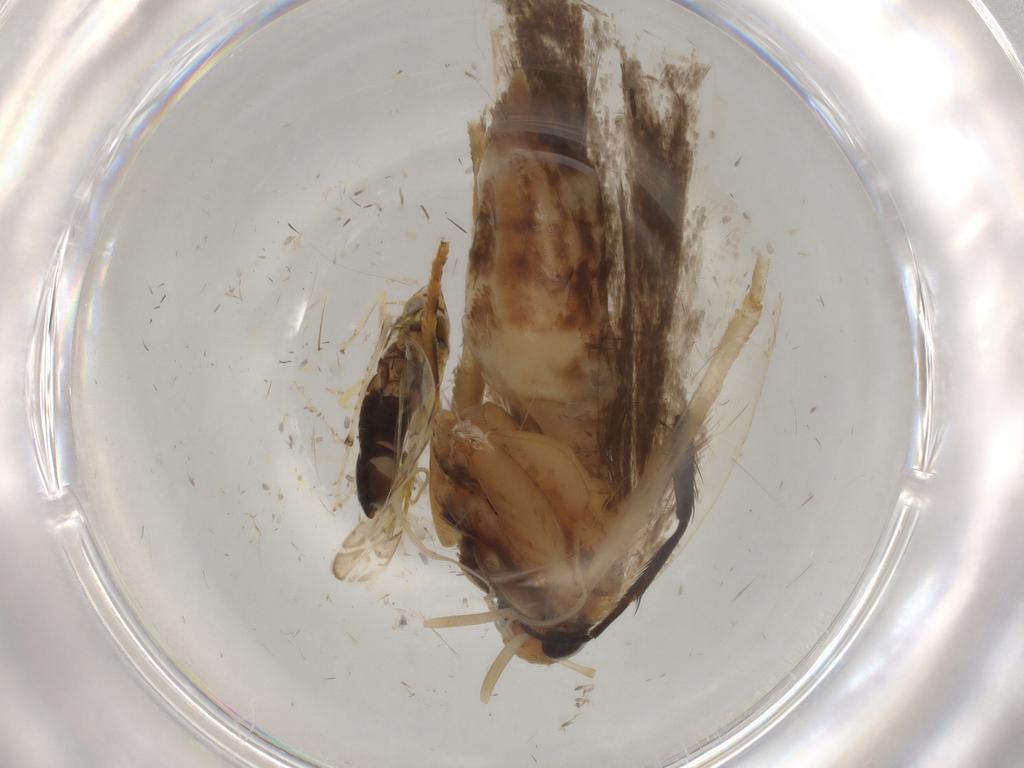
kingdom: Animalia
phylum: Arthropoda
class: Insecta
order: Lepidoptera
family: Gelechiidae
